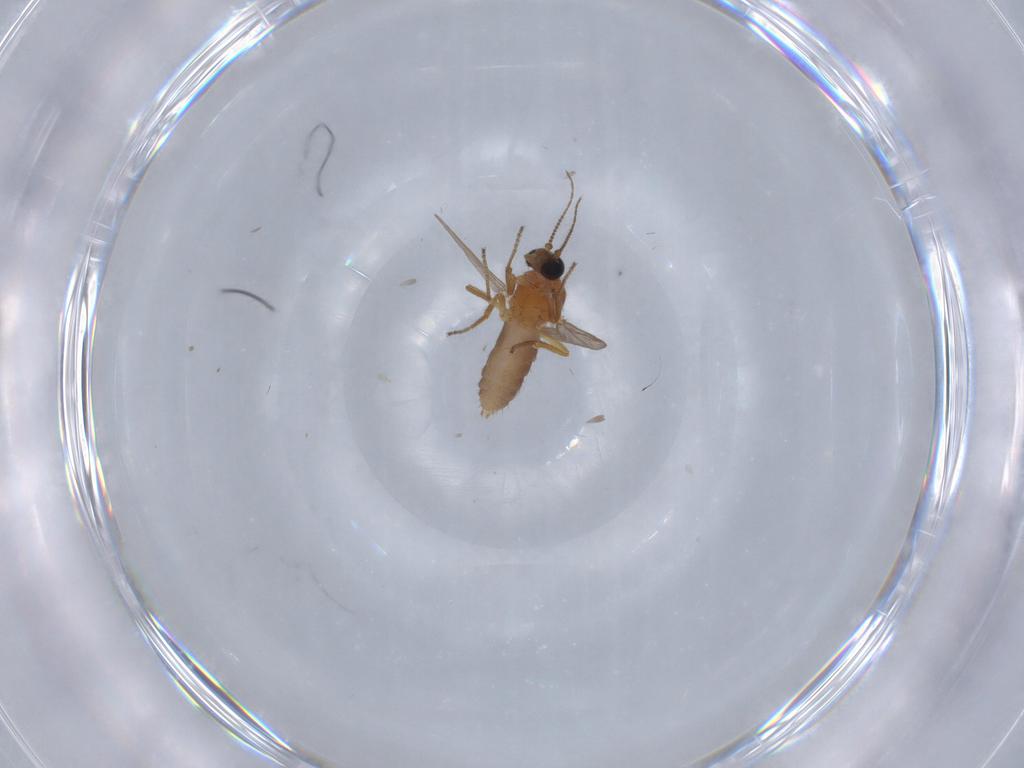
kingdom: Animalia
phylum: Arthropoda
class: Insecta
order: Diptera
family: Ceratopogonidae
